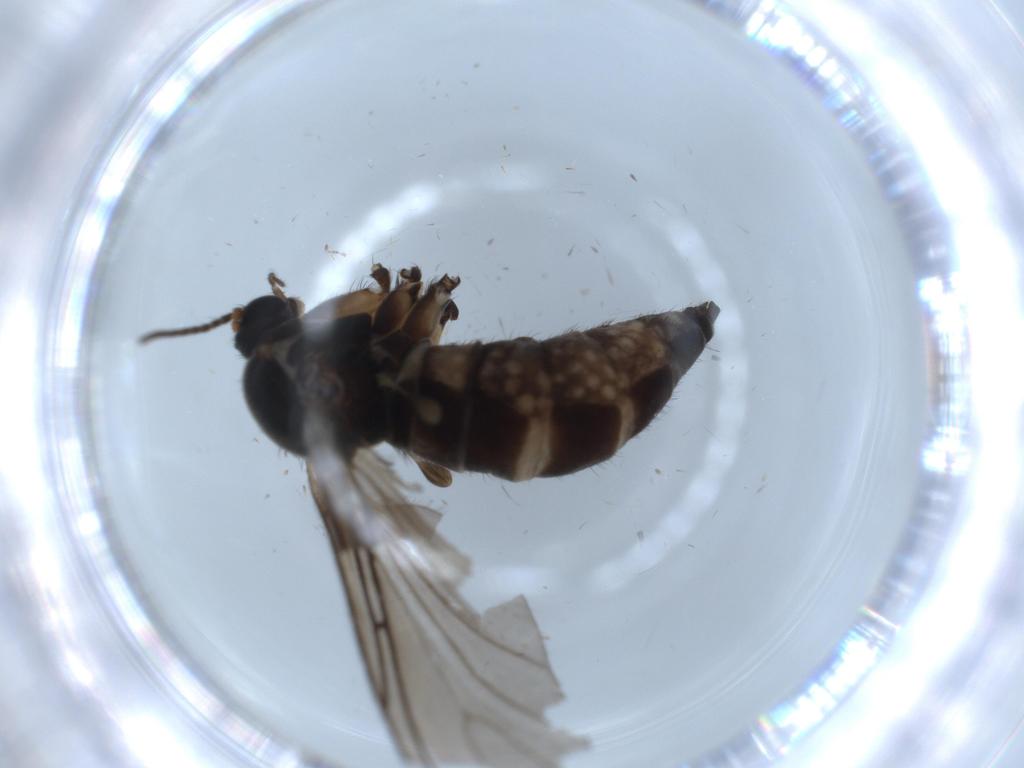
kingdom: Animalia
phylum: Arthropoda
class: Insecta
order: Diptera
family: Sciaridae
